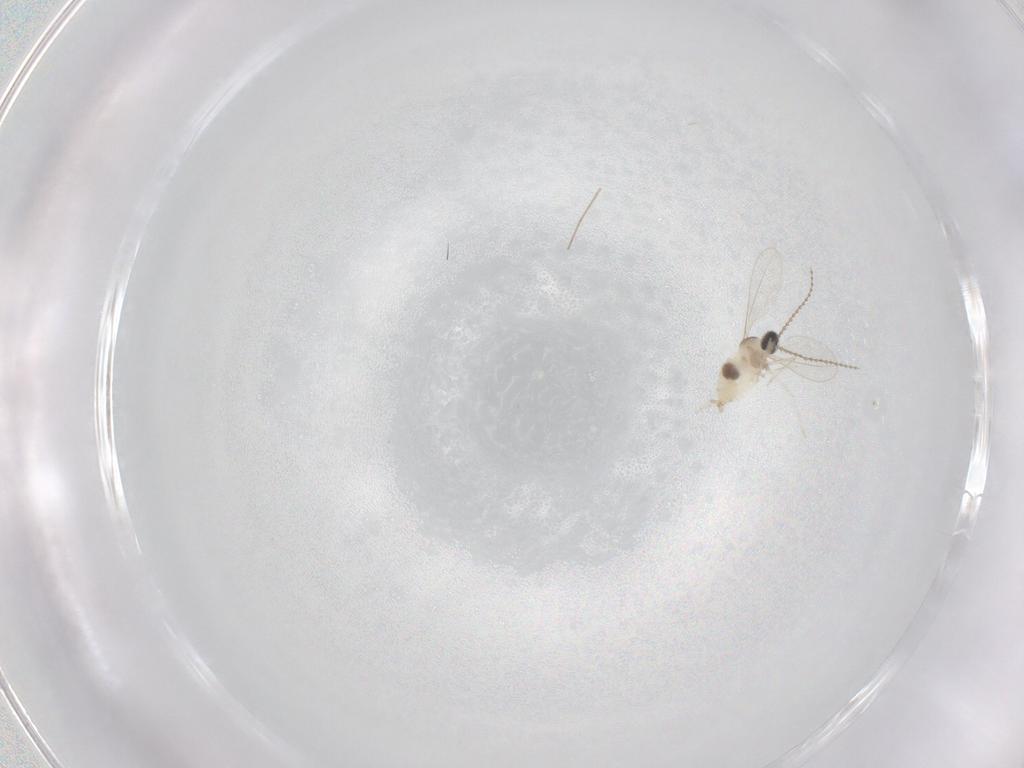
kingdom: Animalia
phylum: Arthropoda
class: Insecta
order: Diptera
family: Cecidomyiidae
